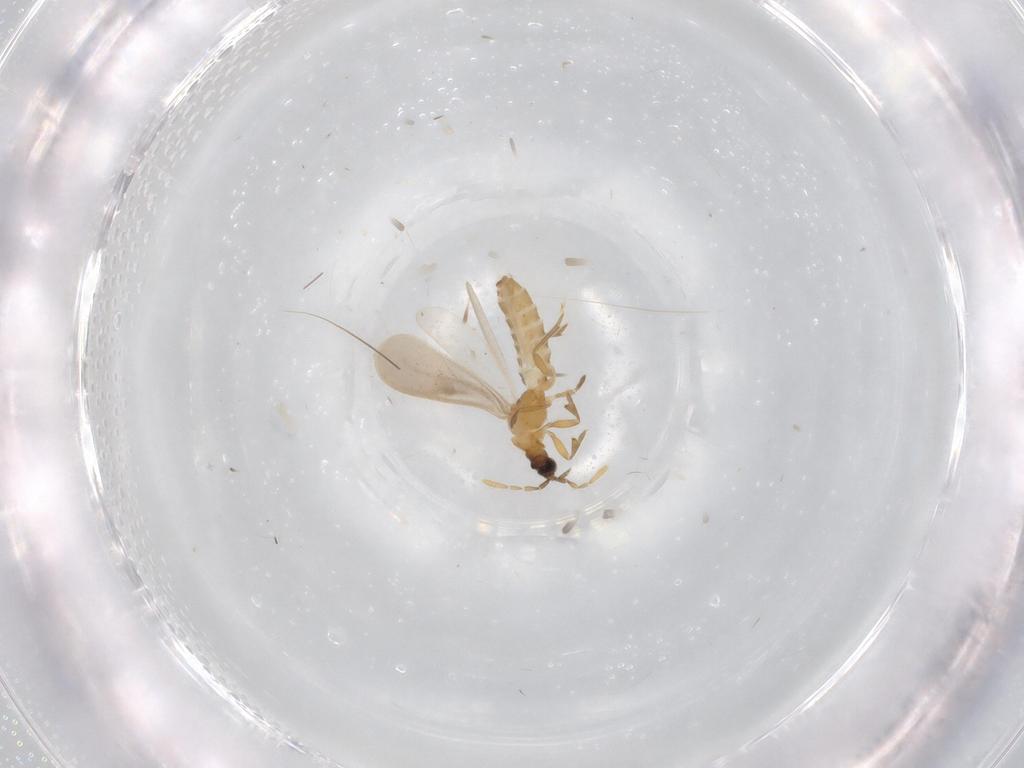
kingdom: Animalia
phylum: Arthropoda
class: Insecta
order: Hemiptera
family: Enicocephalidae
